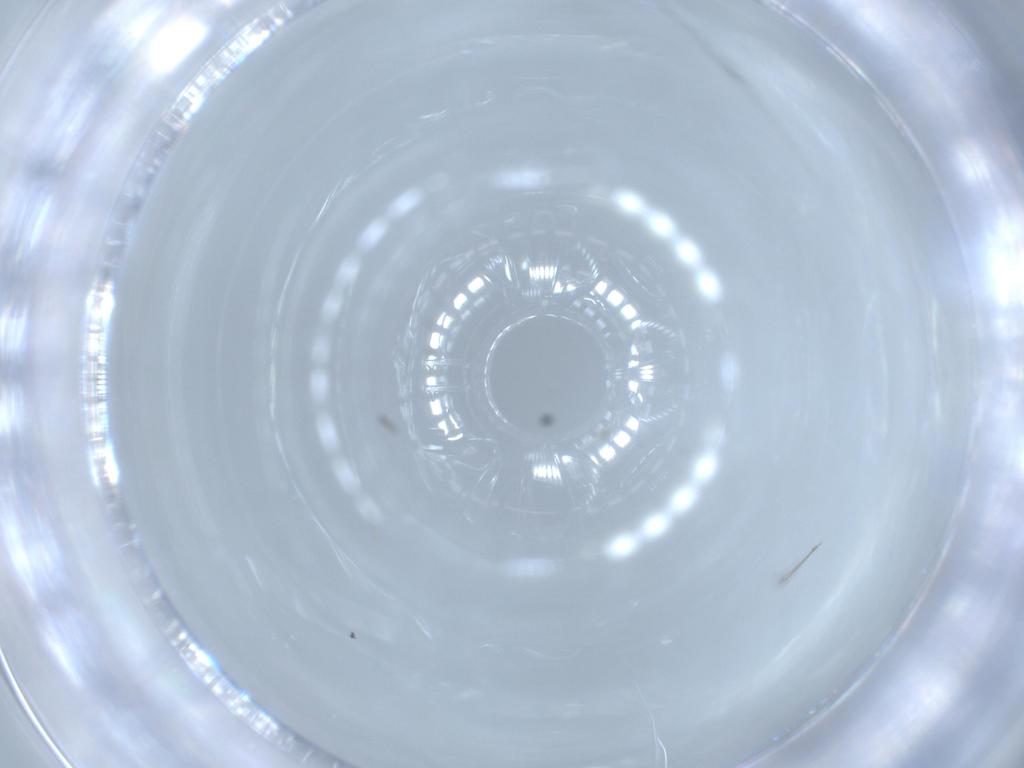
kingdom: Animalia
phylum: Arthropoda
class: Insecta
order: Hymenoptera
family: Mymaridae
